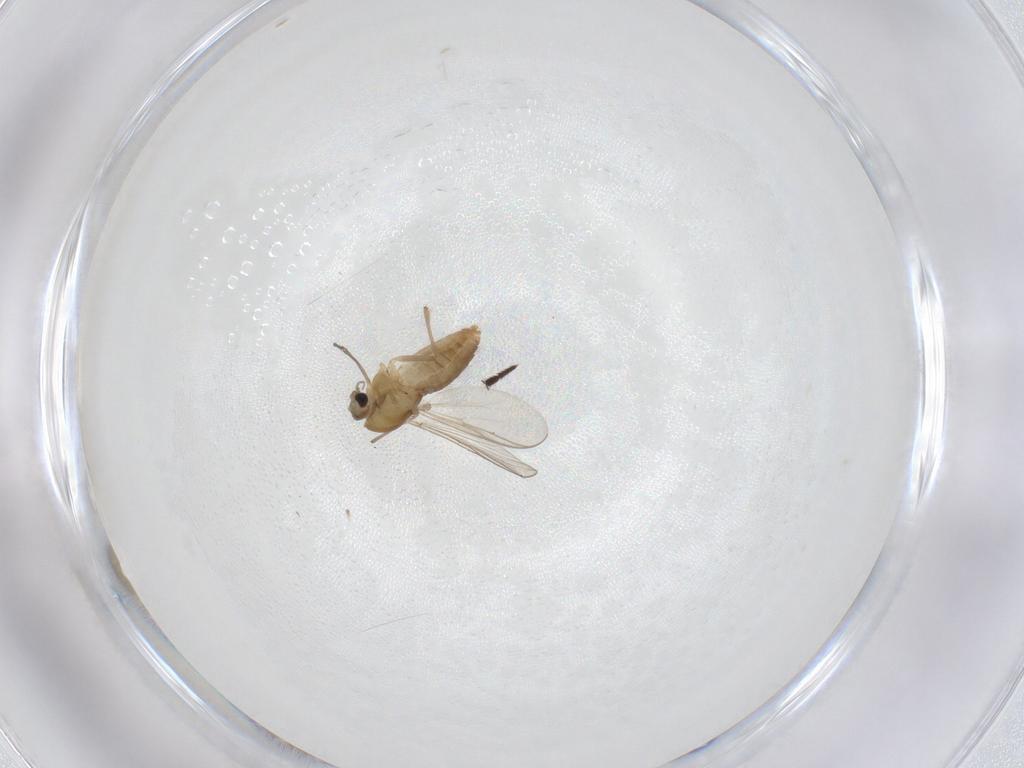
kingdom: Animalia
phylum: Arthropoda
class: Insecta
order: Diptera
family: Chironomidae
